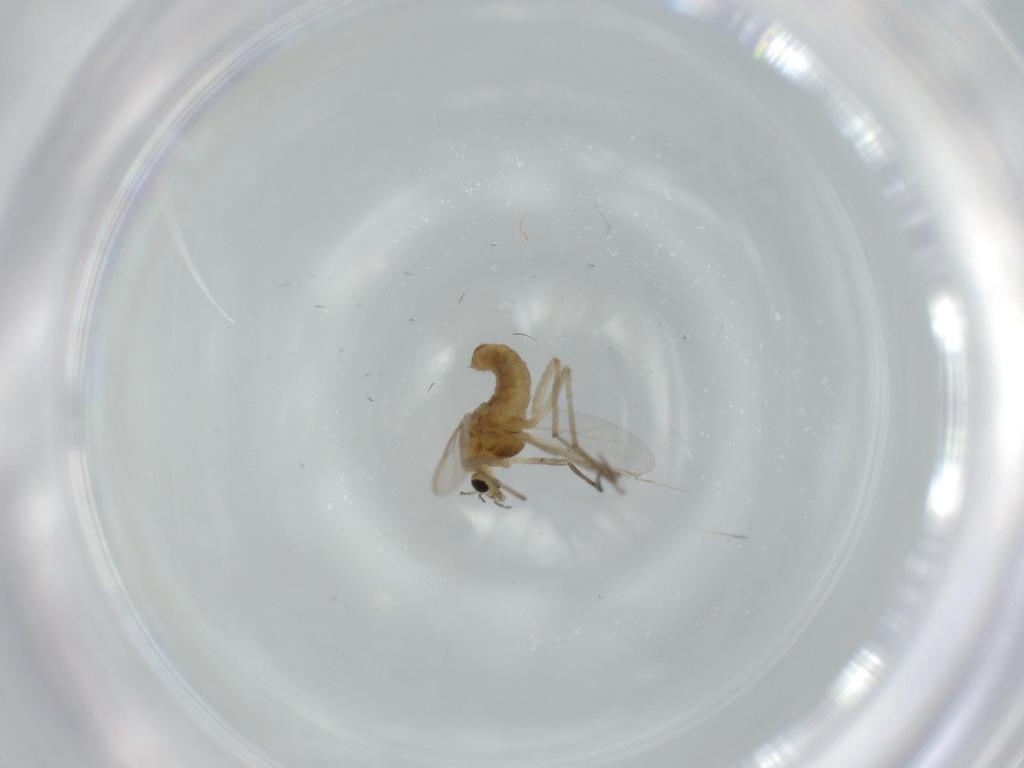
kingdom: Animalia
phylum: Arthropoda
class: Insecta
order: Diptera
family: Chironomidae
